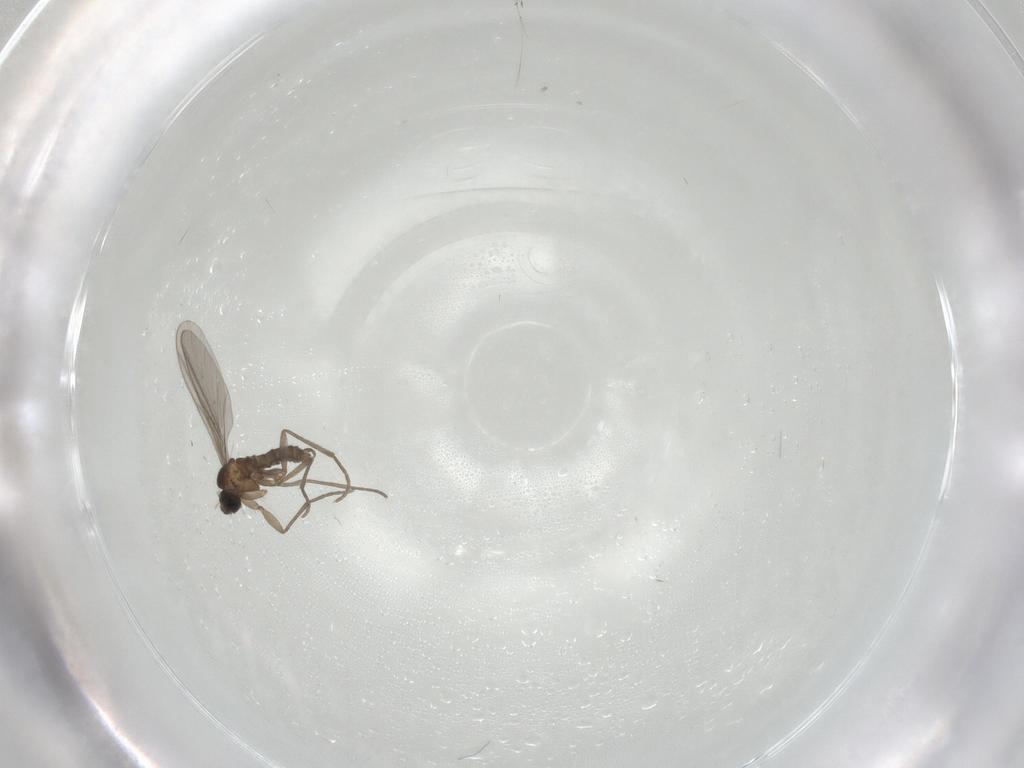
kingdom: Animalia
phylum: Arthropoda
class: Insecta
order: Diptera
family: Sciaridae
